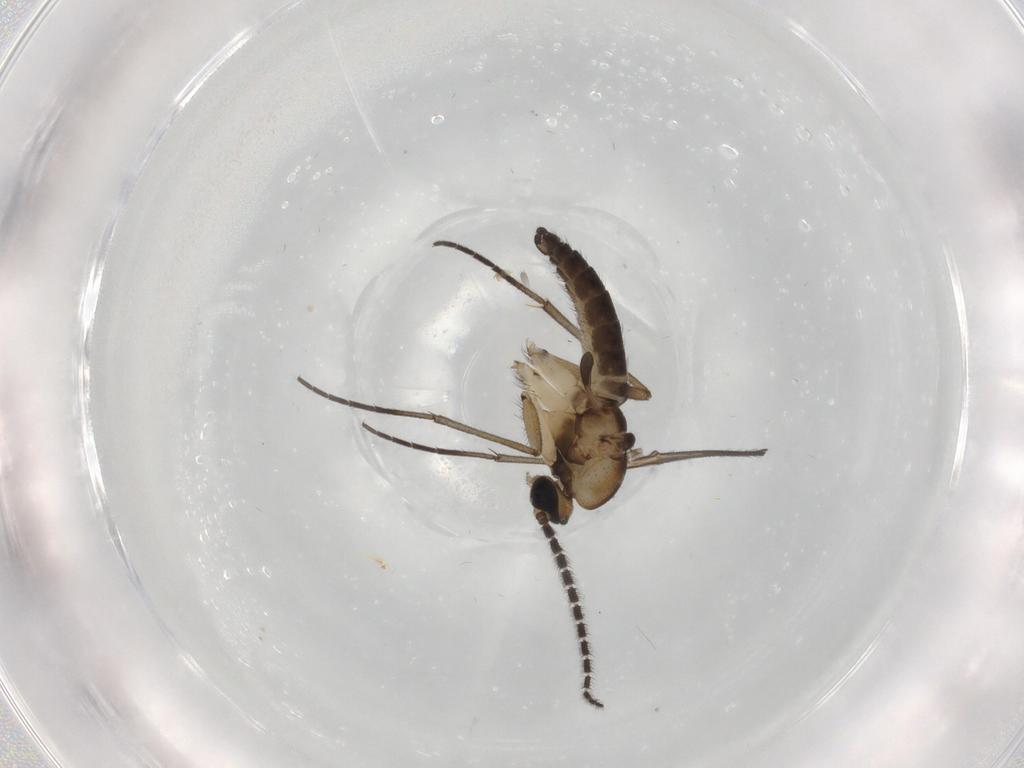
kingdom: Animalia
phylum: Arthropoda
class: Insecta
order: Diptera
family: Sciaridae
